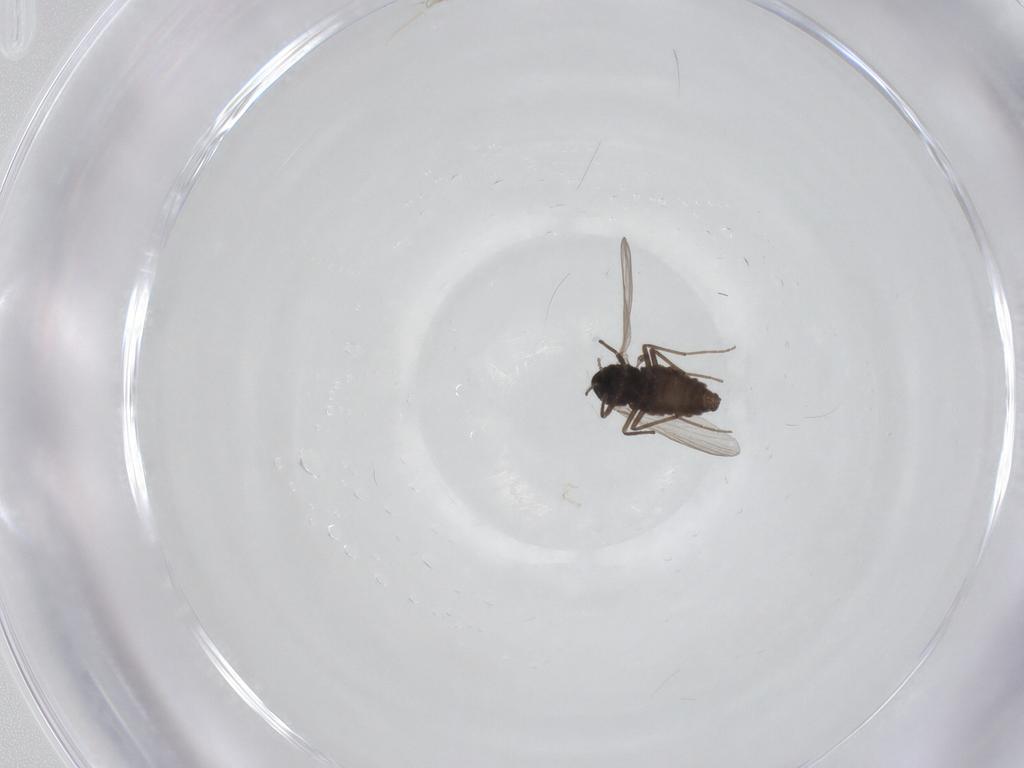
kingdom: Animalia
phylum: Arthropoda
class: Insecta
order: Diptera
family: Chironomidae
